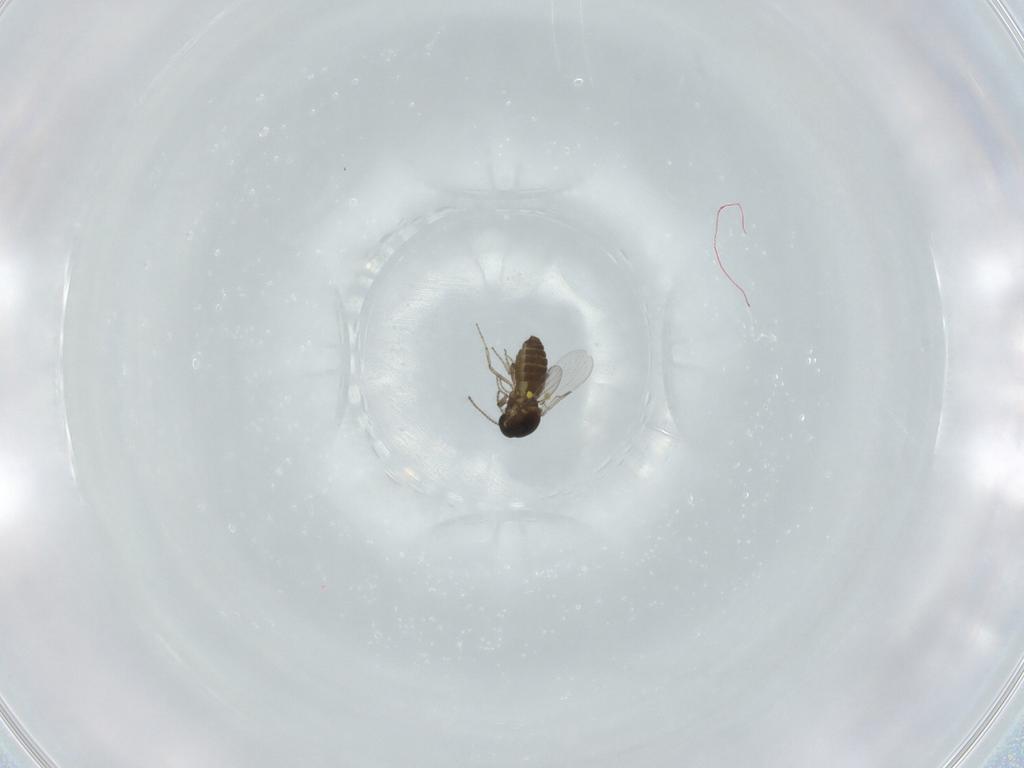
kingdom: Animalia
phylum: Arthropoda
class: Insecta
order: Diptera
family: Ceratopogonidae
